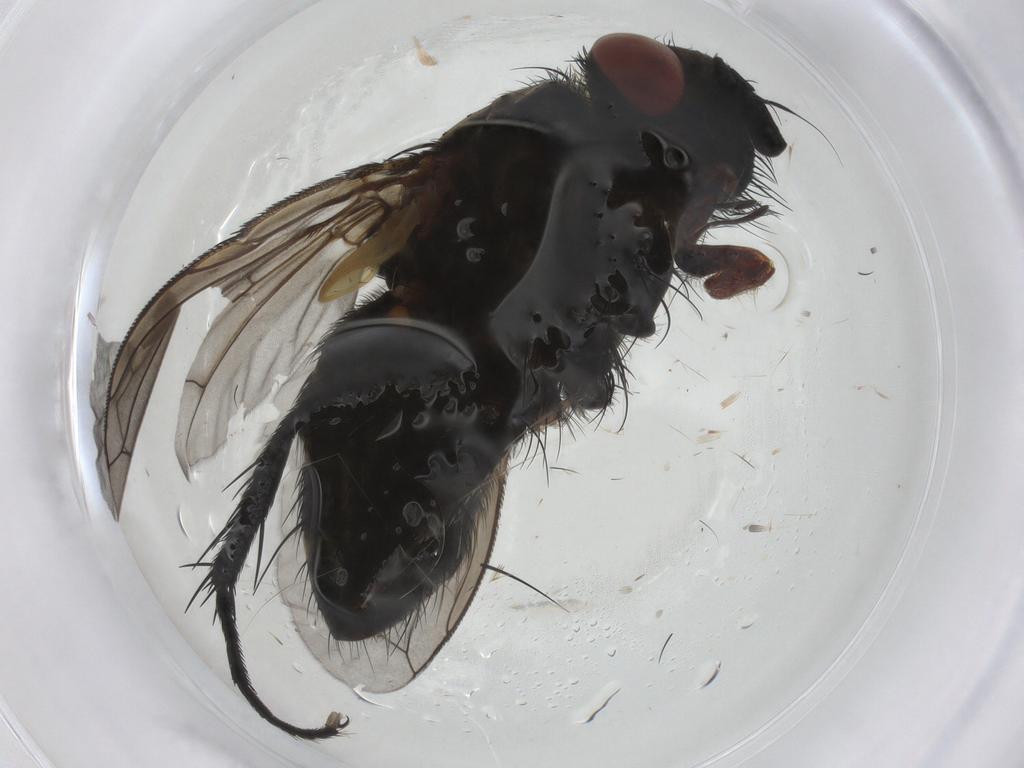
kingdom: Animalia
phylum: Arthropoda
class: Insecta
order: Diptera
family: Tachinidae
